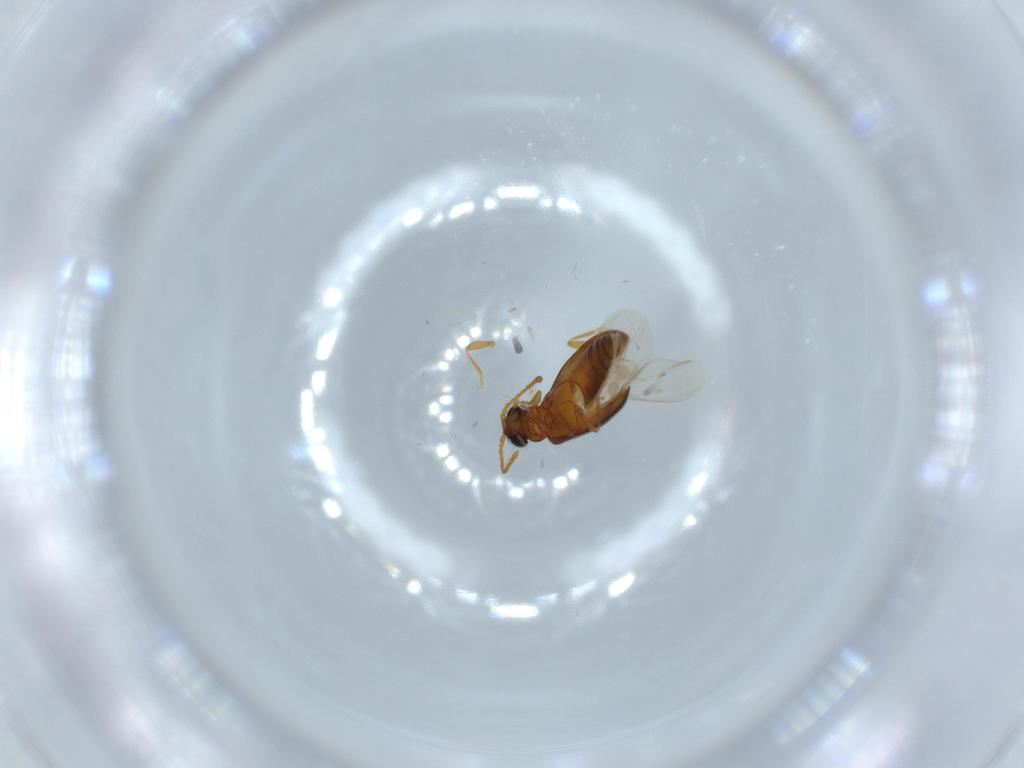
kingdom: Animalia
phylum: Arthropoda
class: Insecta
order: Coleoptera
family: Aderidae
